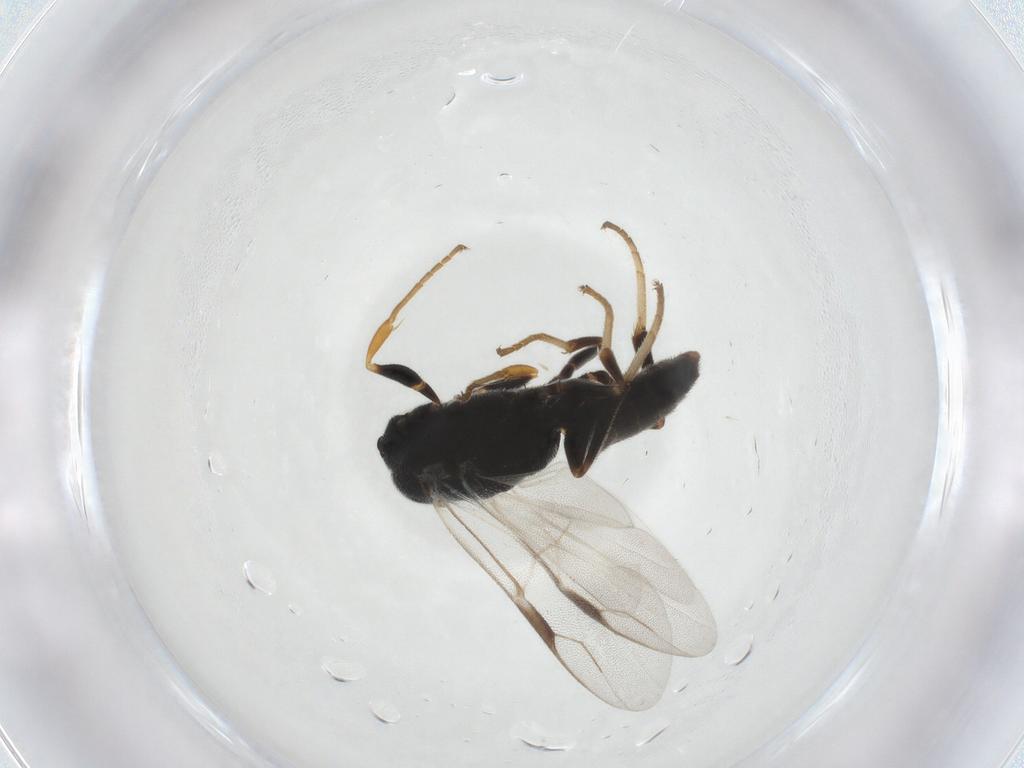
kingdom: Animalia
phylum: Arthropoda
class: Insecta
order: Hymenoptera
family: Dryinidae
